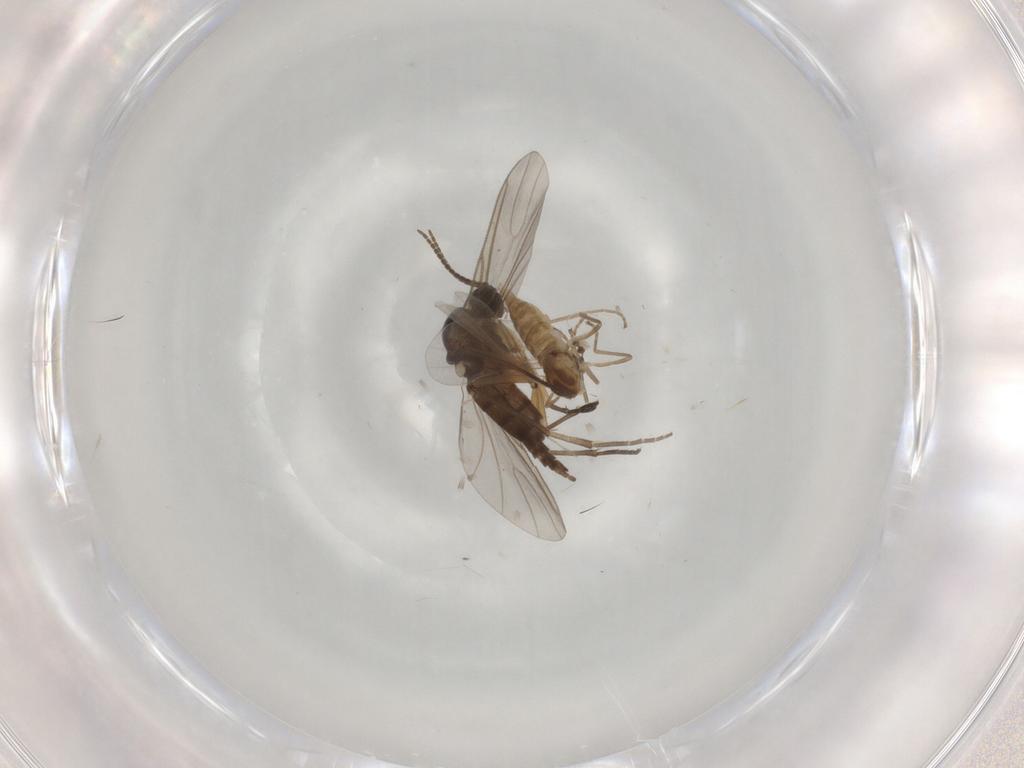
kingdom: Animalia
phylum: Arthropoda
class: Insecta
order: Diptera
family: Cecidomyiidae
